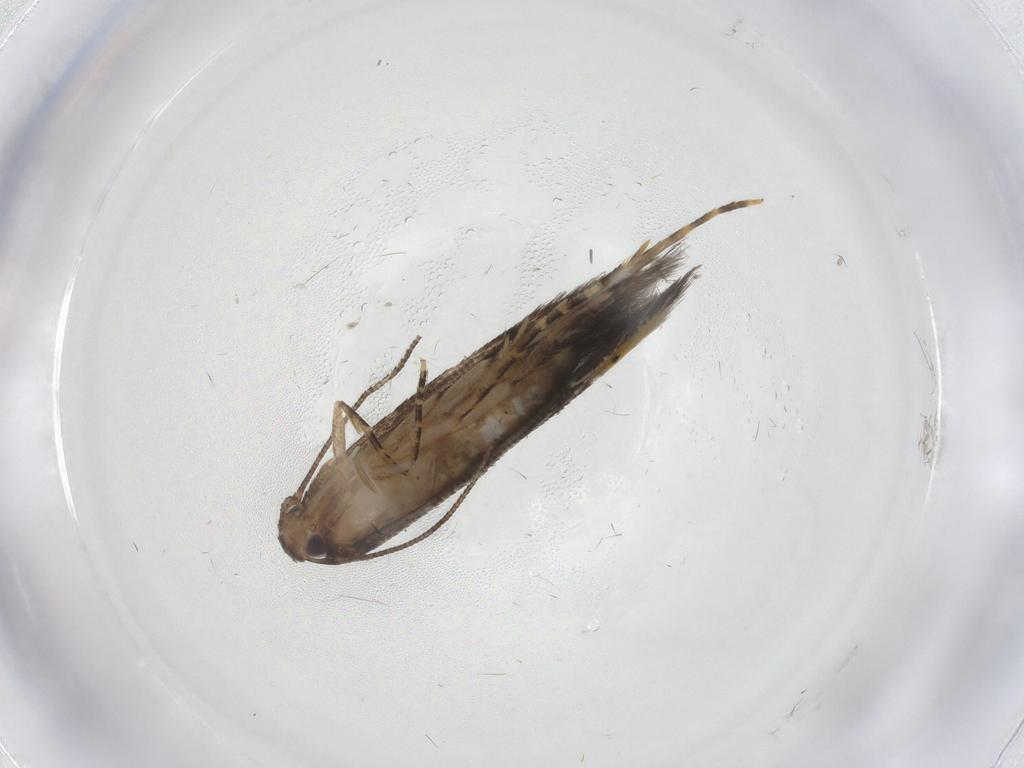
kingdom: Animalia
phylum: Arthropoda
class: Insecta
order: Lepidoptera
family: Cosmopterigidae
